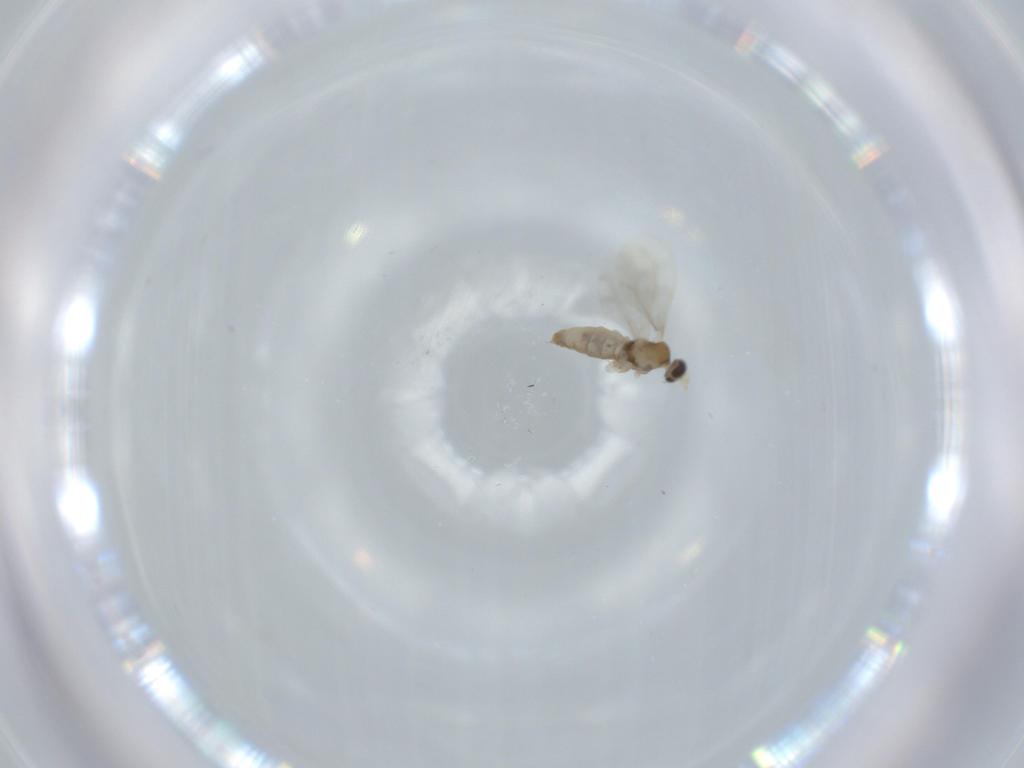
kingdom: Animalia
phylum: Arthropoda
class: Insecta
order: Diptera
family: Cecidomyiidae
